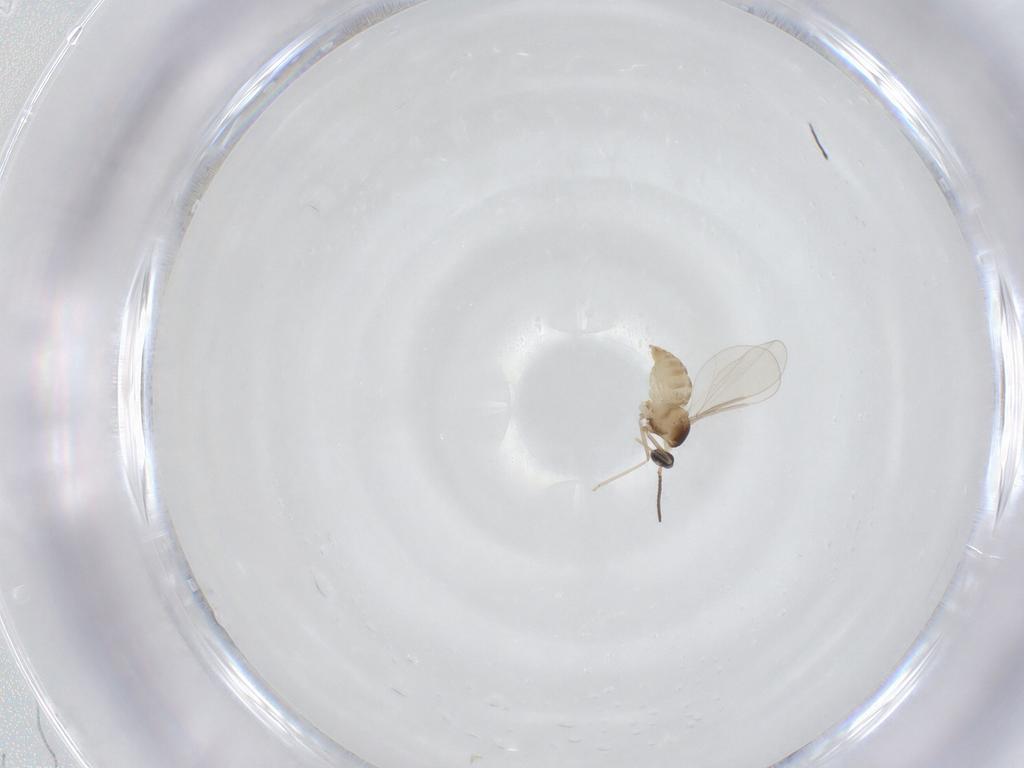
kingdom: Animalia
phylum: Arthropoda
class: Insecta
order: Diptera
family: Cecidomyiidae
